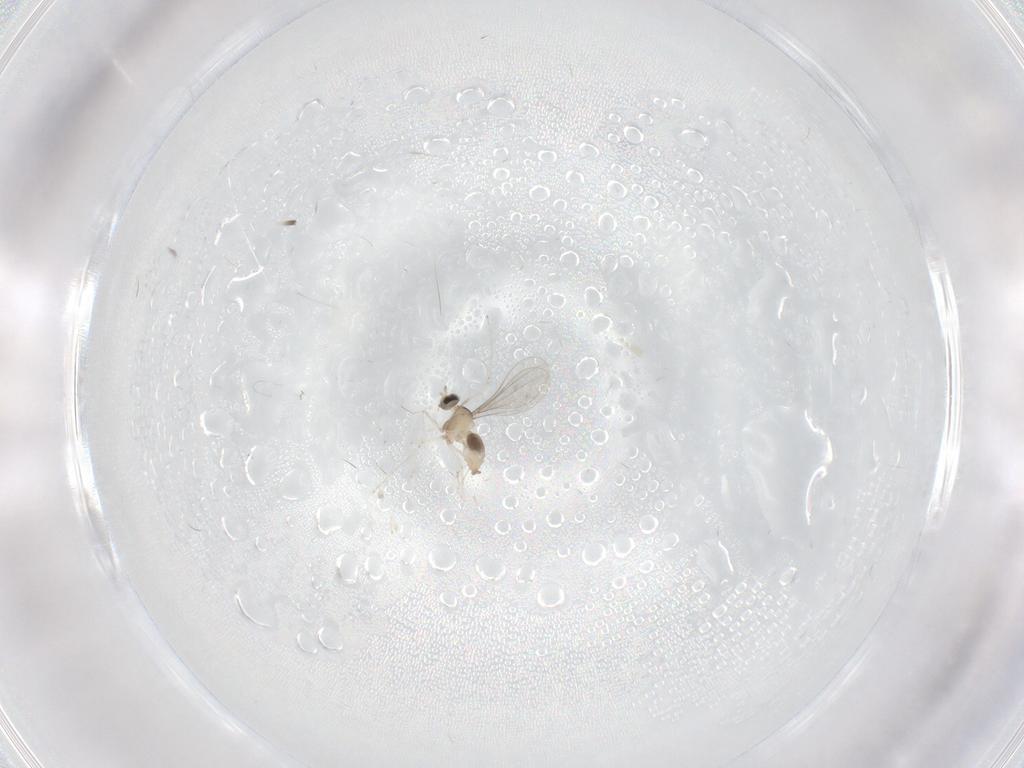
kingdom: Animalia
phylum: Arthropoda
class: Insecta
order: Diptera
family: Cecidomyiidae
